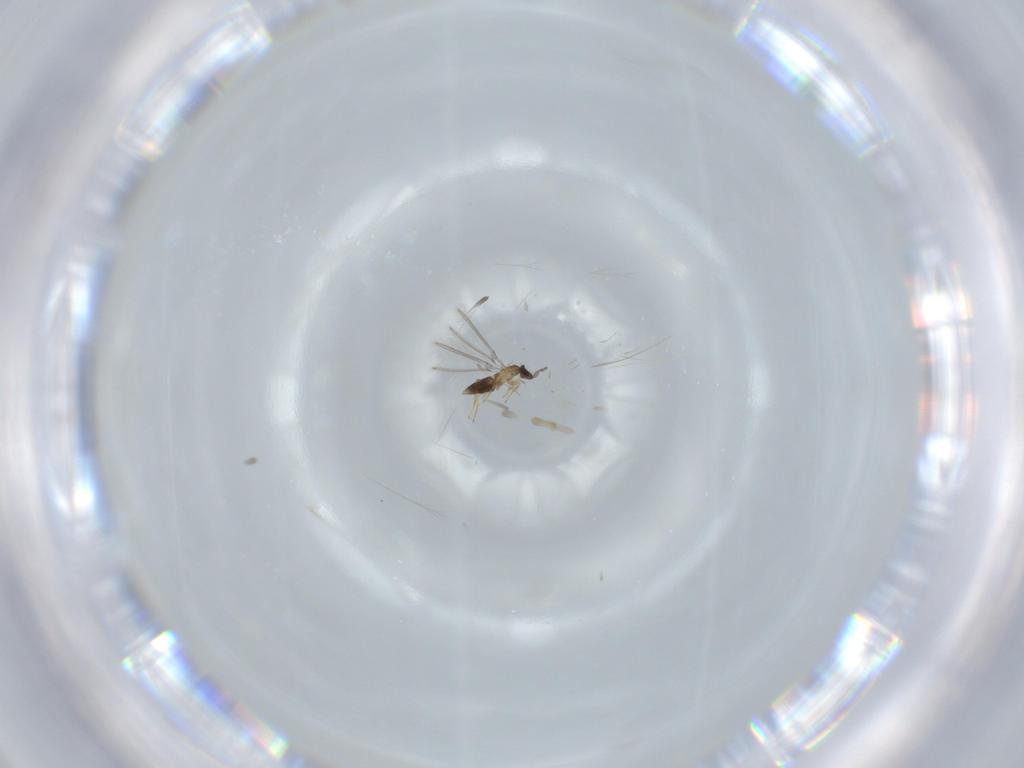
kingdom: Animalia
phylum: Arthropoda
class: Insecta
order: Hymenoptera
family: Mymaridae
